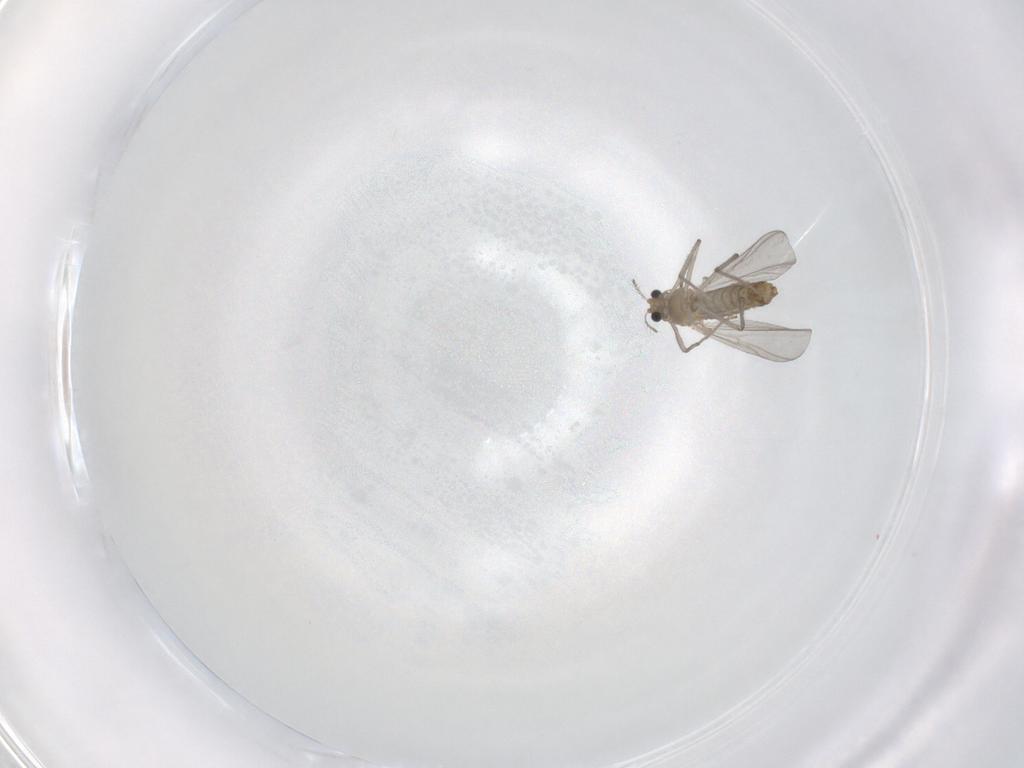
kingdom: Animalia
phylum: Arthropoda
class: Insecta
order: Diptera
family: Chironomidae
